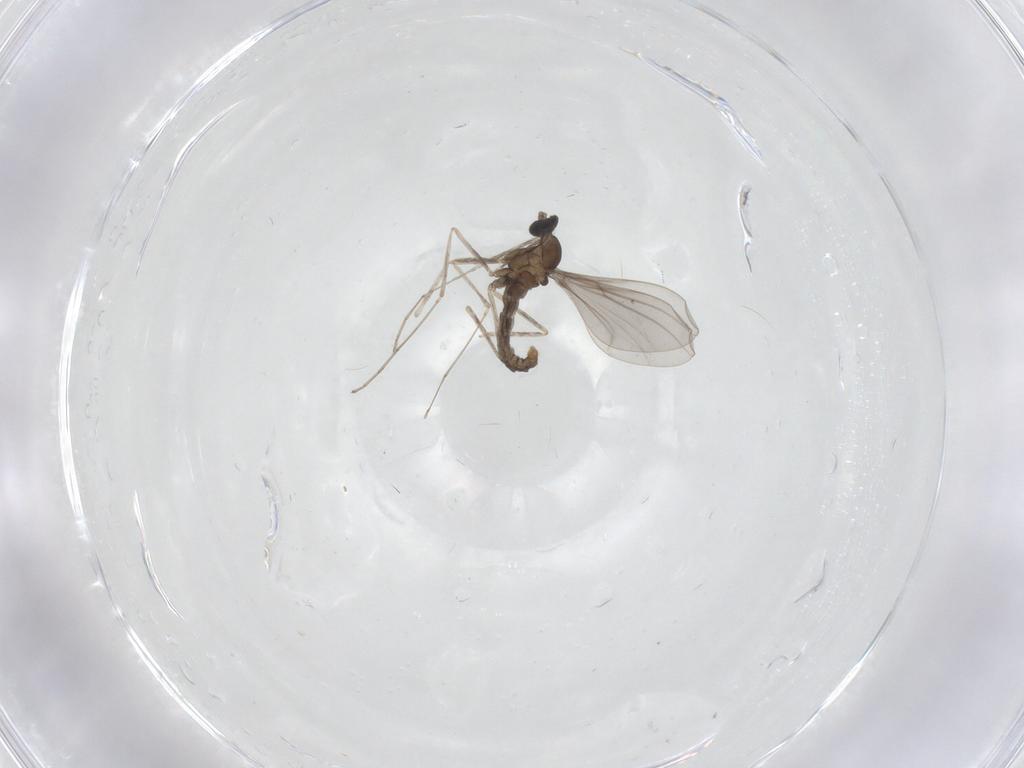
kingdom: Animalia
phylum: Arthropoda
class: Insecta
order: Diptera
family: Cecidomyiidae
